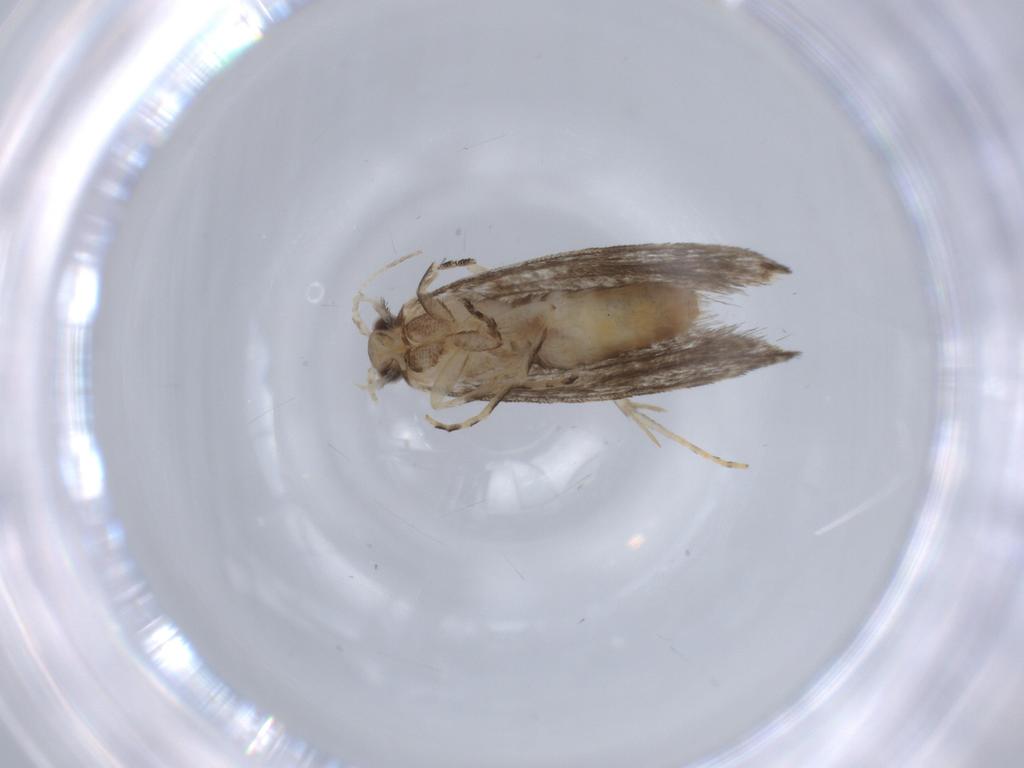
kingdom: Animalia
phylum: Arthropoda
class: Insecta
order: Lepidoptera
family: Tineidae
